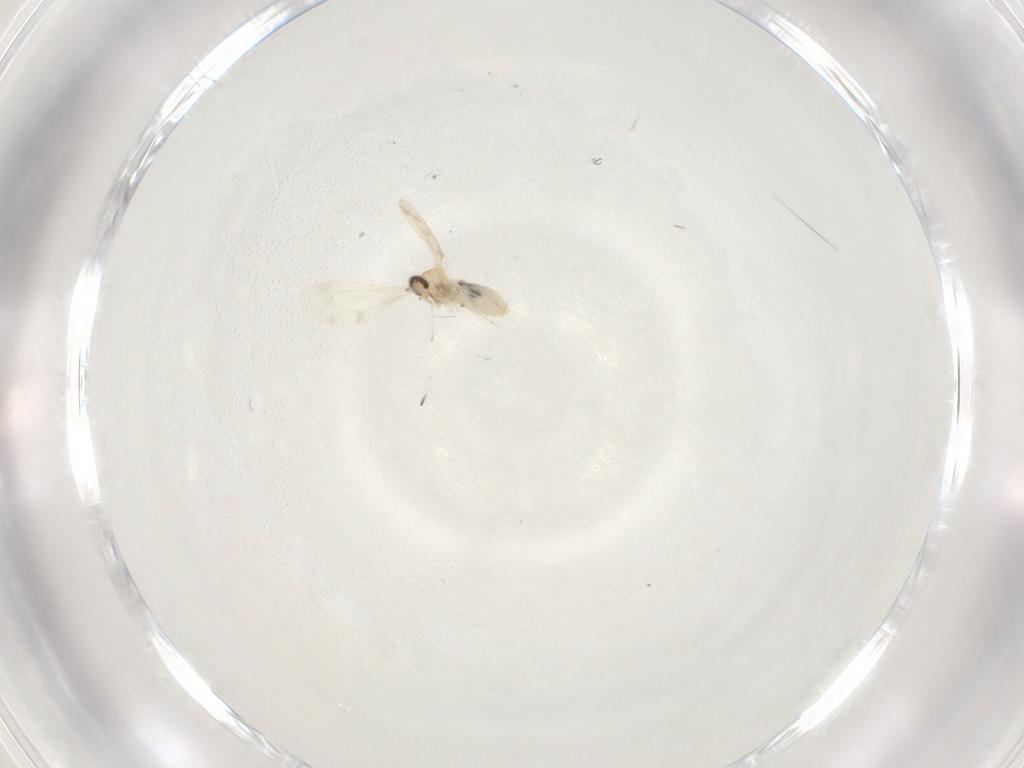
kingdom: Animalia
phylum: Arthropoda
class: Insecta
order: Diptera
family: Cecidomyiidae
